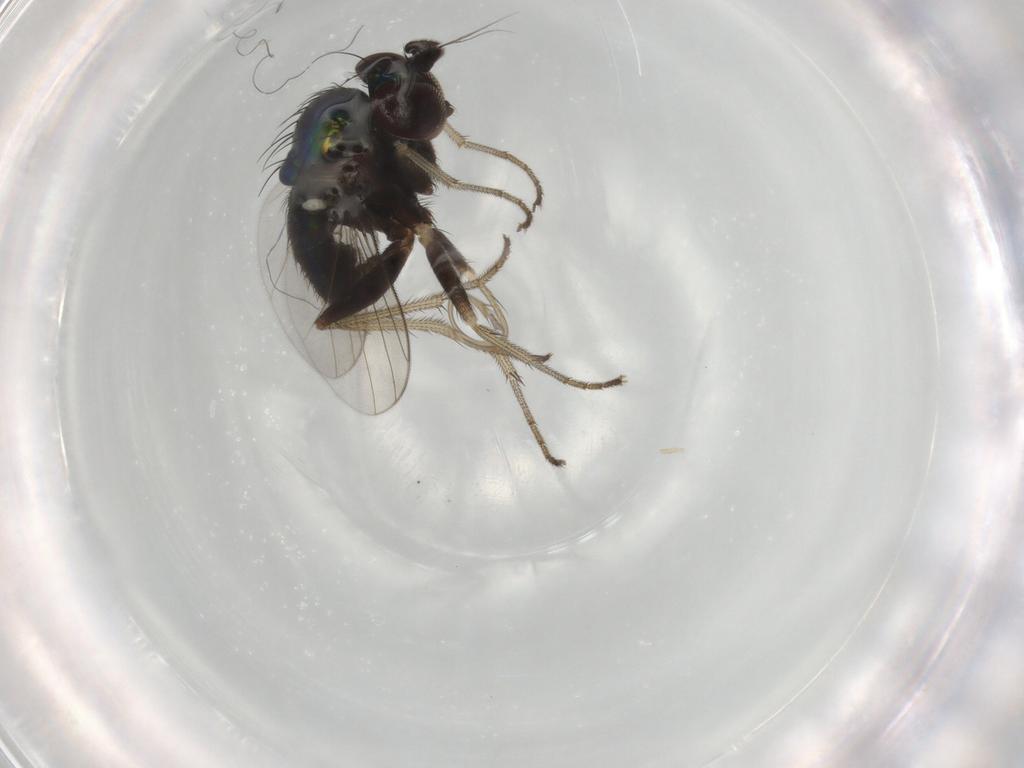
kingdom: Animalia
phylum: Arthropoda
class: Insecta
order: Diptera
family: Dolichopodidae
